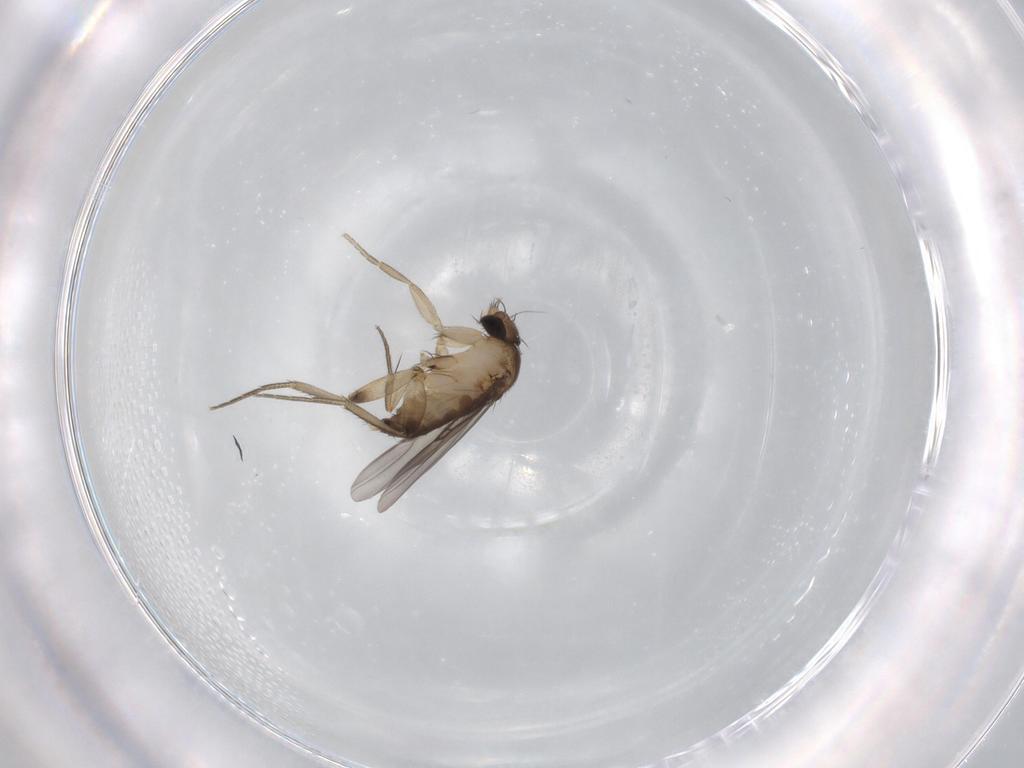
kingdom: Animalia
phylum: Arthropoda
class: Insecta
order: Diptera
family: Phoridae
